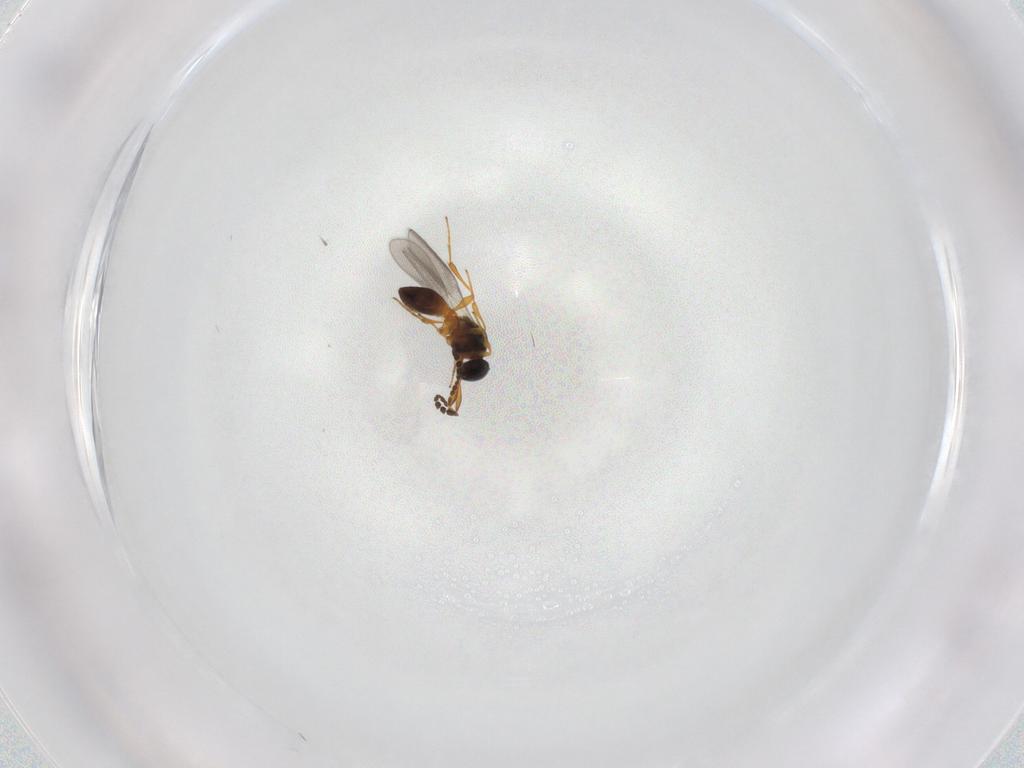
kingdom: Animalia
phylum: Arthropoda
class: Insecta
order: Hymenoptera
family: Platygastridae
